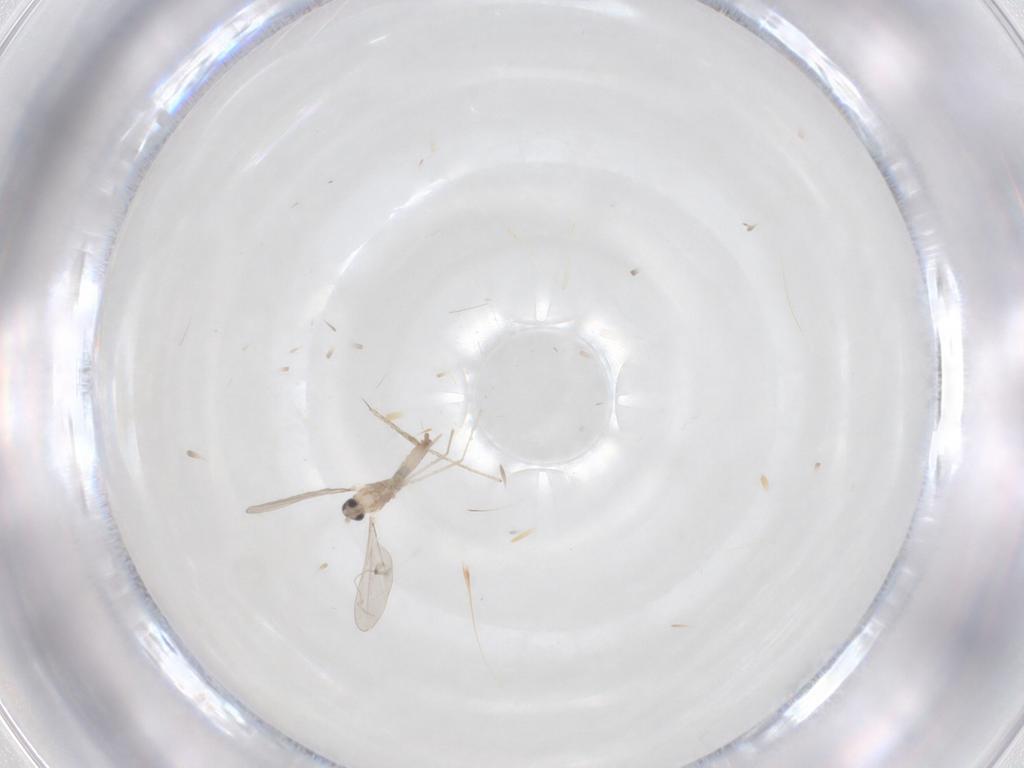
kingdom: Animalia
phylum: Arthropoda
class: Insecta
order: Diptera
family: Cecidomyiidae
